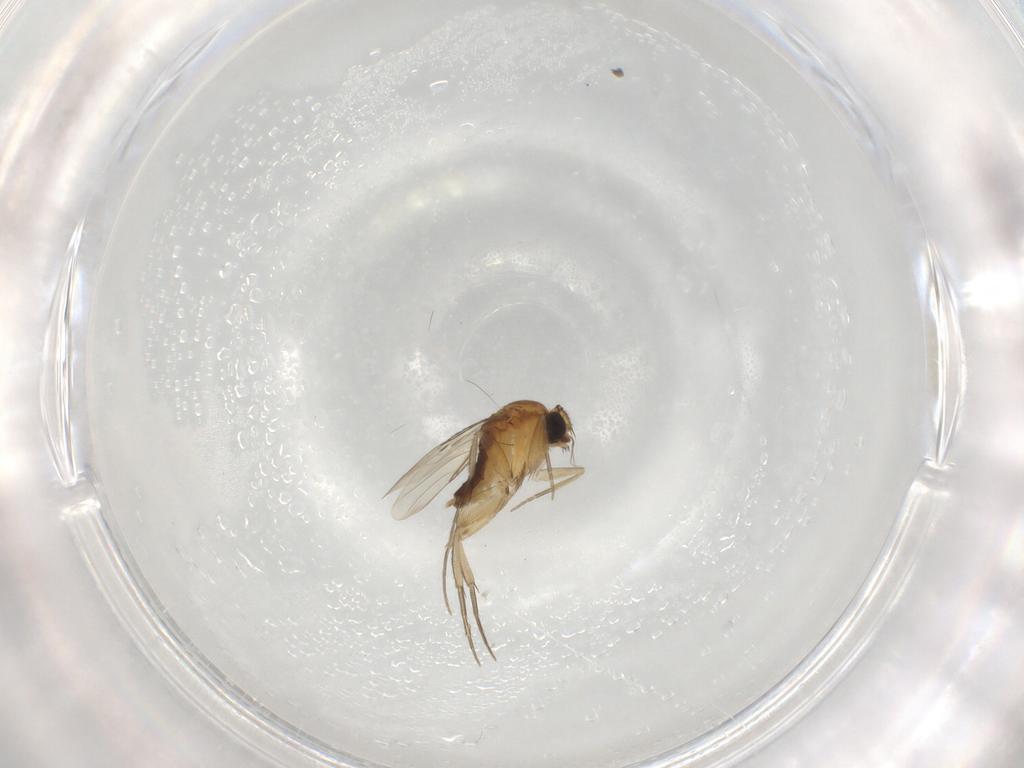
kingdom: Animalia
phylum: Arthropoda
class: Insecta
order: Diptera
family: Phoridae
